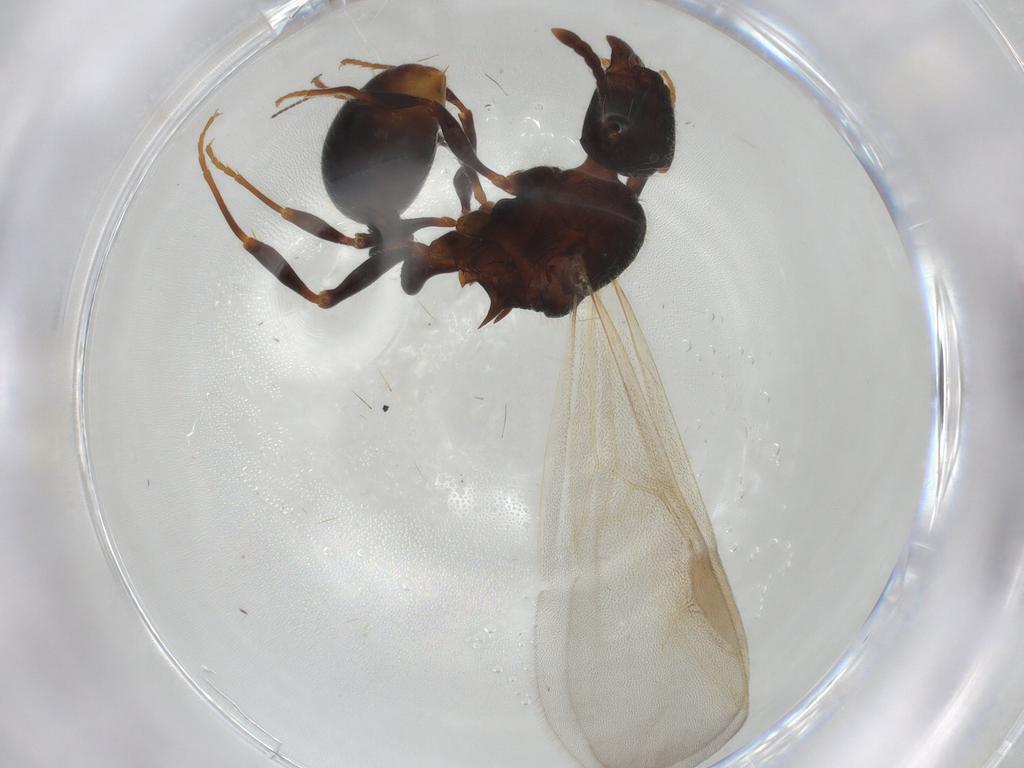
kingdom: Animalia
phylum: Arthropoda
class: Insecta
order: Hymenoptera
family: Formicidae
